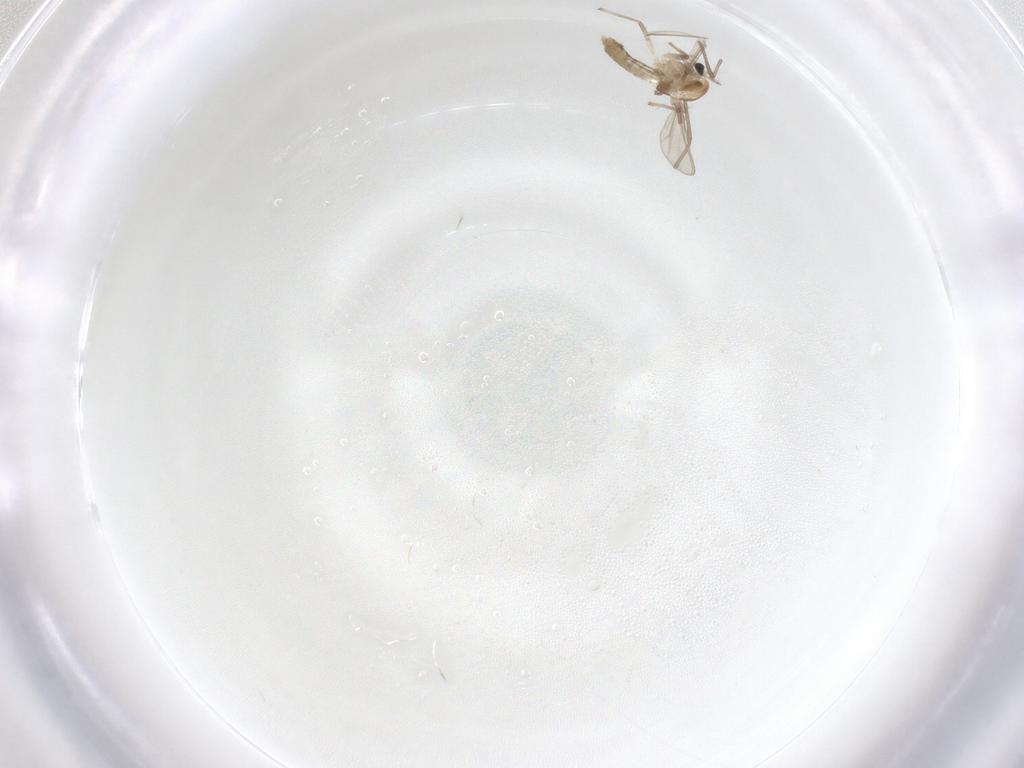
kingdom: Animalia
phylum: Arthropoda
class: Insecta
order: Diptera
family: Chironomidae
